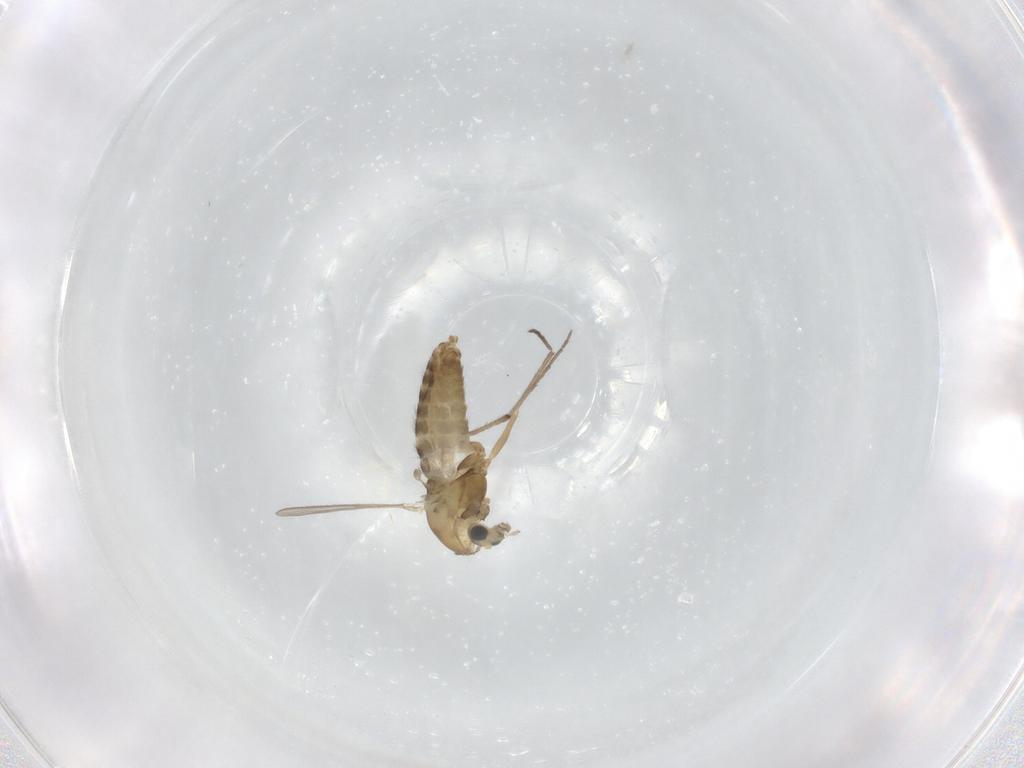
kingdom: Animalia
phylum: Arthropoda
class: Insecta
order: Diptera
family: Chironomidae
